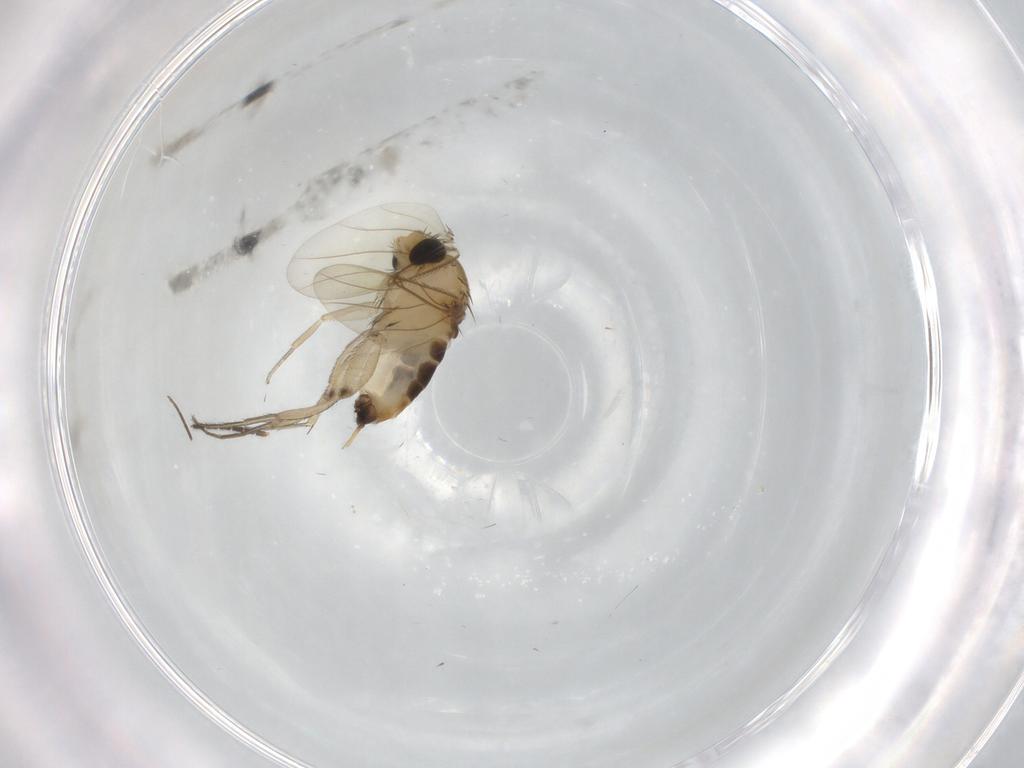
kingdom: Animalia
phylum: Arthropoda
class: Insecta
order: Diptera
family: Phoridae
